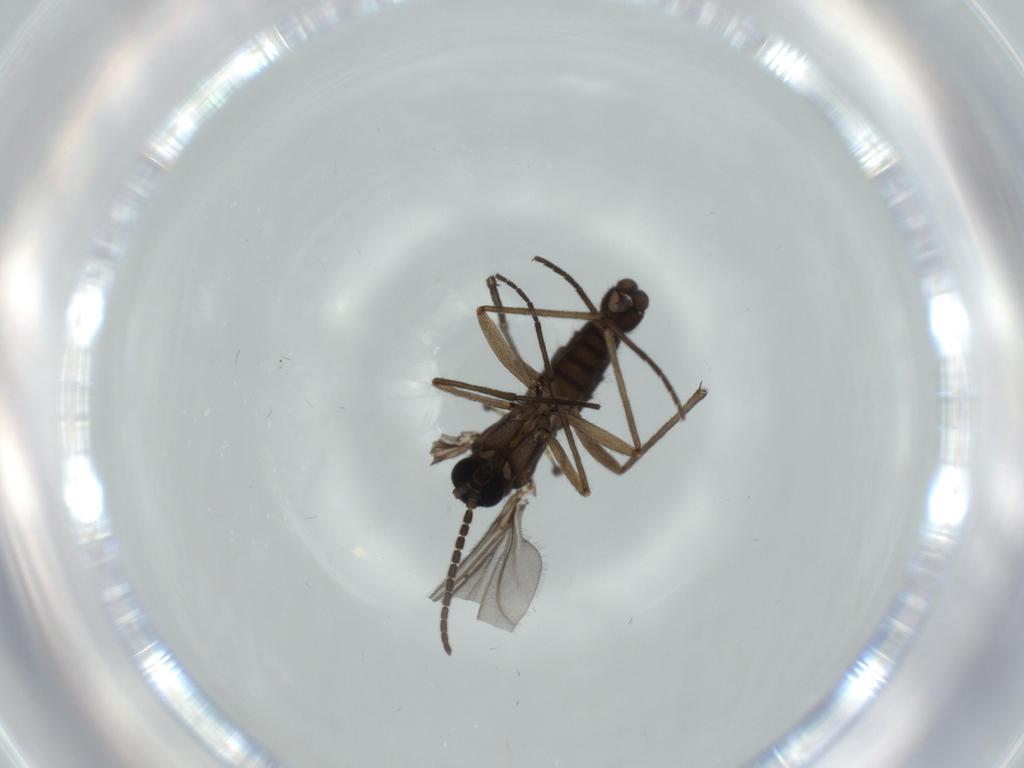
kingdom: Animalia
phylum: Arthropoda
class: Insecta
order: Diptera
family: Sciaridae
